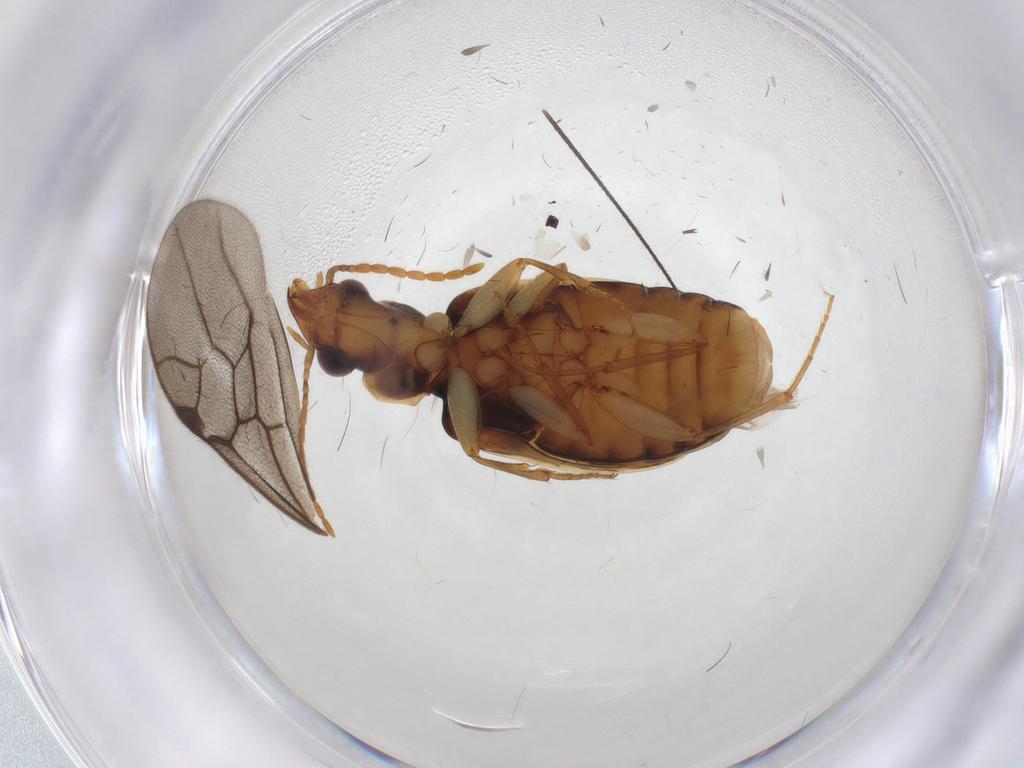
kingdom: Animalia
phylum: Arthropoda
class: Insecta
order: Coleoptera
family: Carabidae
